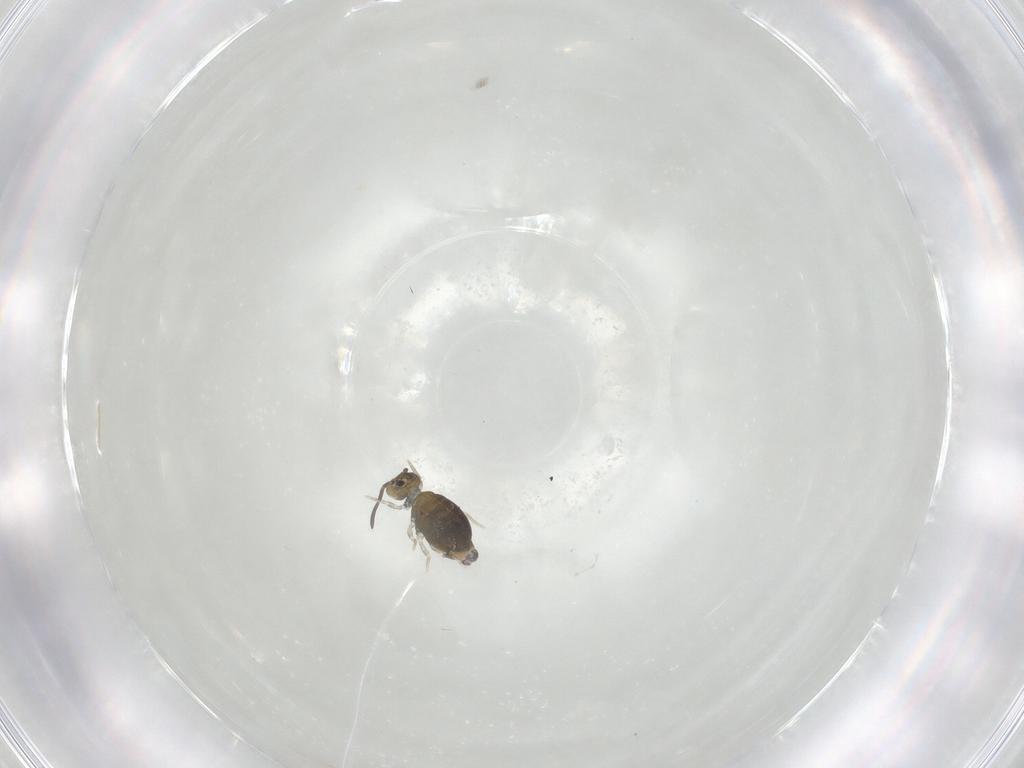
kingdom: Animalia
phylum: Arthropoda
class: Collembola
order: Symphypleona
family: Katiannidae
